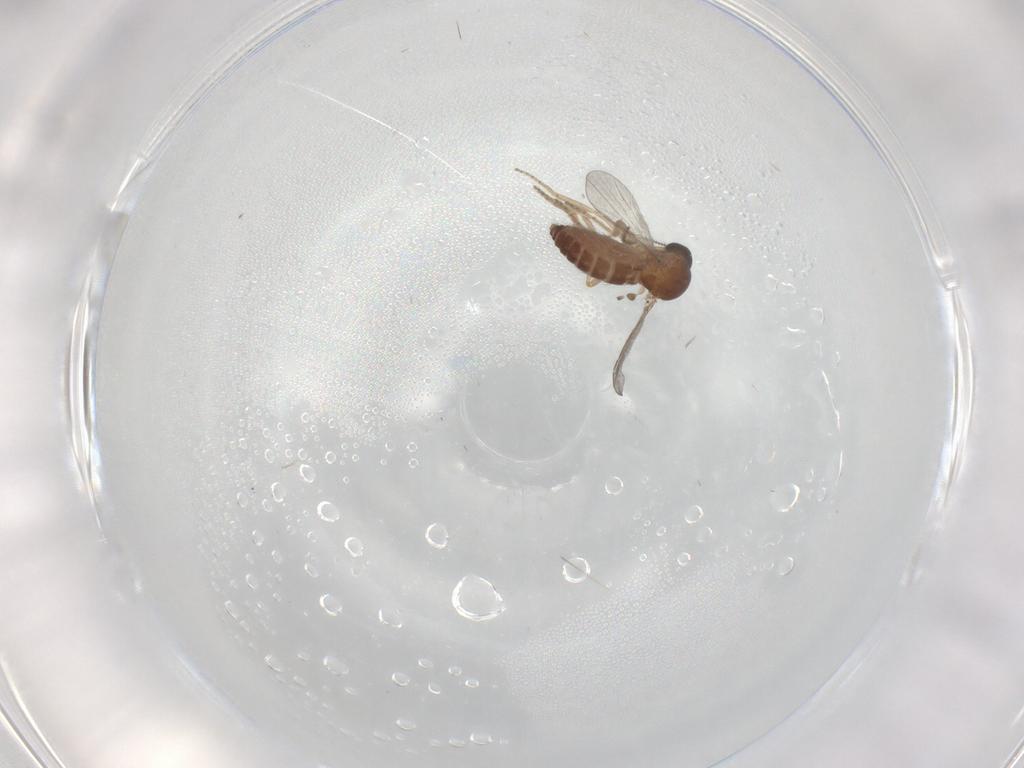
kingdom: Animalia
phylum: Arthropoda
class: Insecta
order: Diptera
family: Ceratopogonidae
